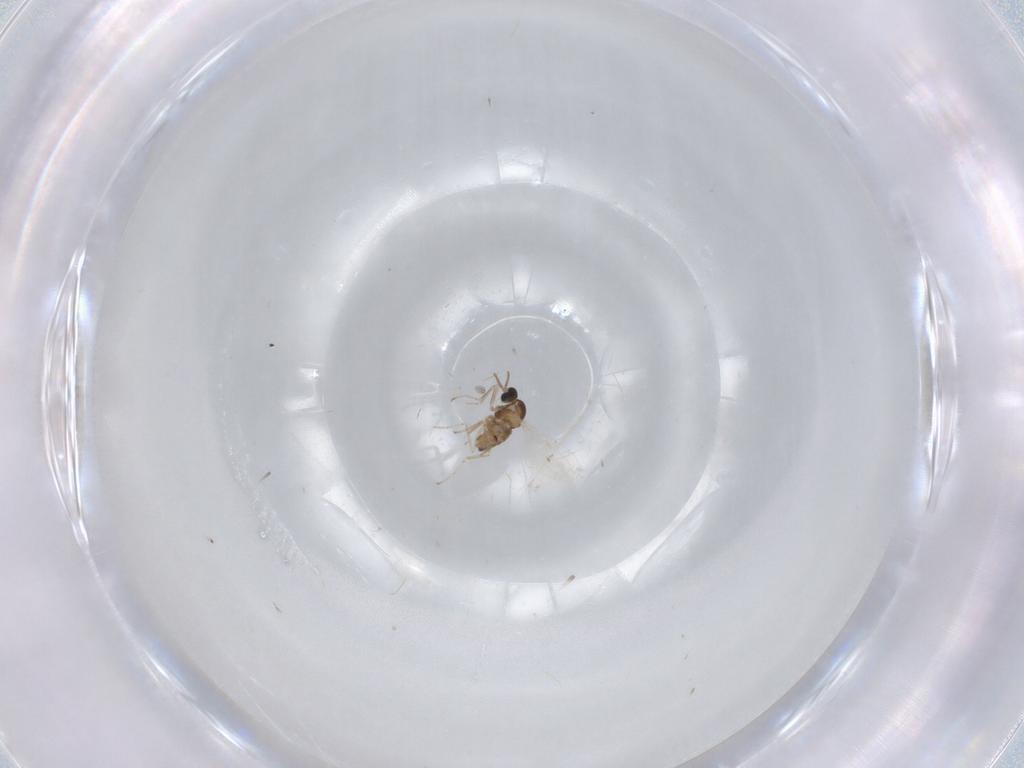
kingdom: Animalia
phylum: Arthropoda
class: Insecta
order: Diptera
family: Cecidomyiidae
